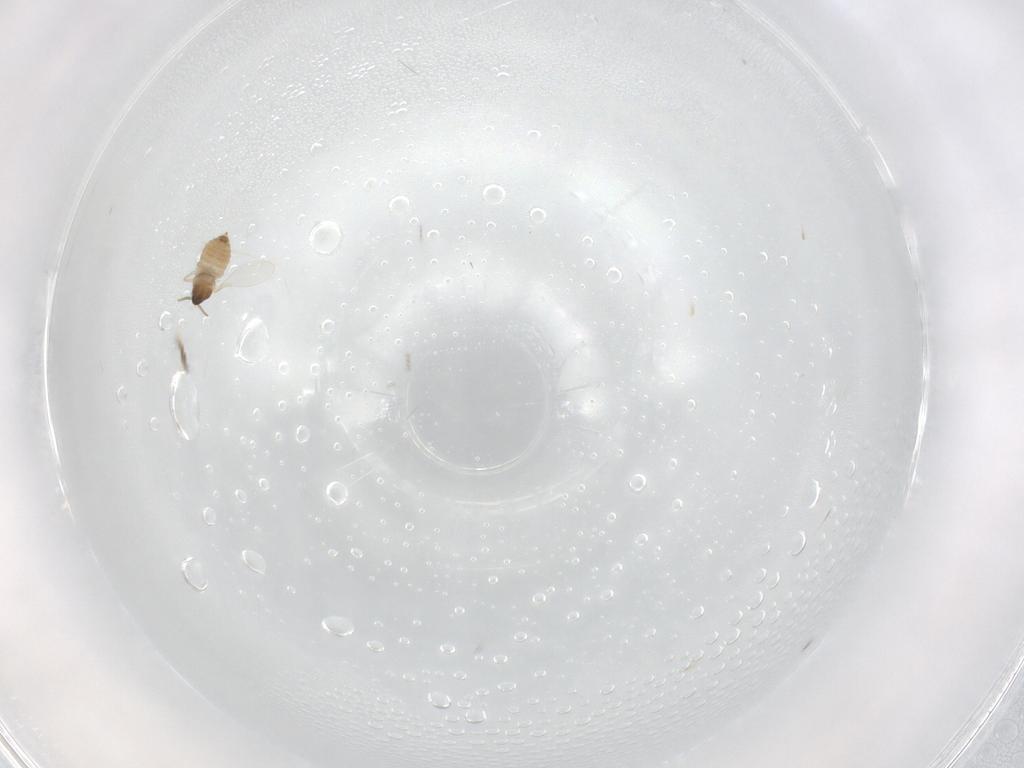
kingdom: Animalia
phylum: Arthropoda
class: Insecta
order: Diptera
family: Cecidomyiidae
